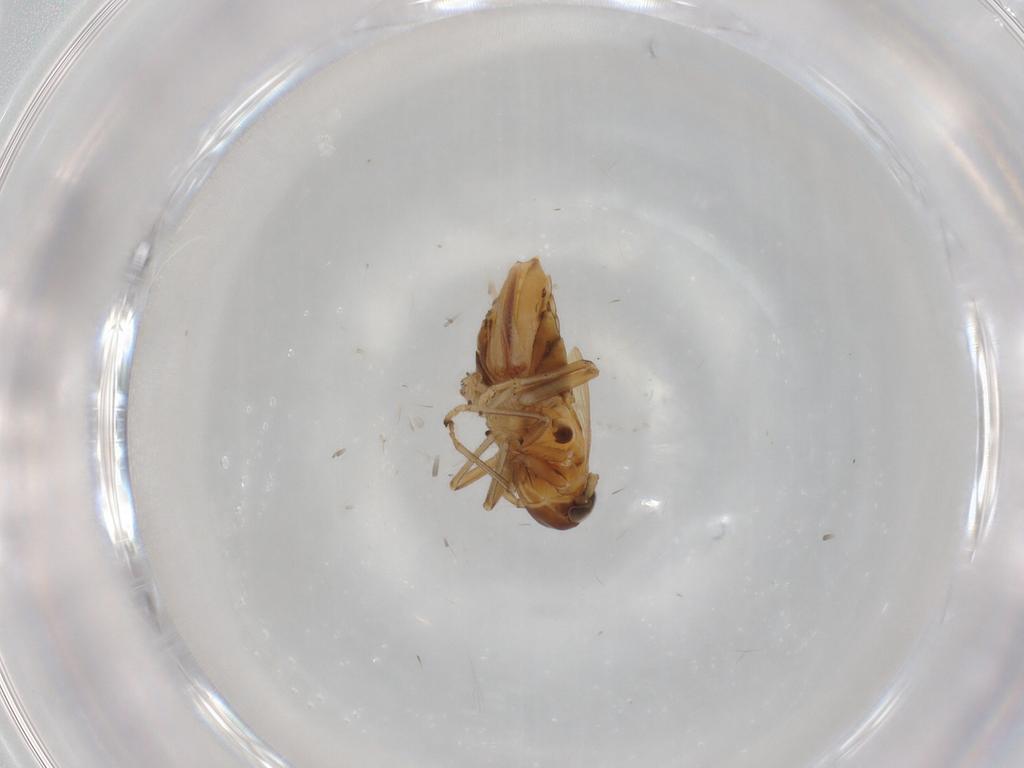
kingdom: Animalia
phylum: Arthropoda
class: Insecta
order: Hemiptera
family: Delphacidae
